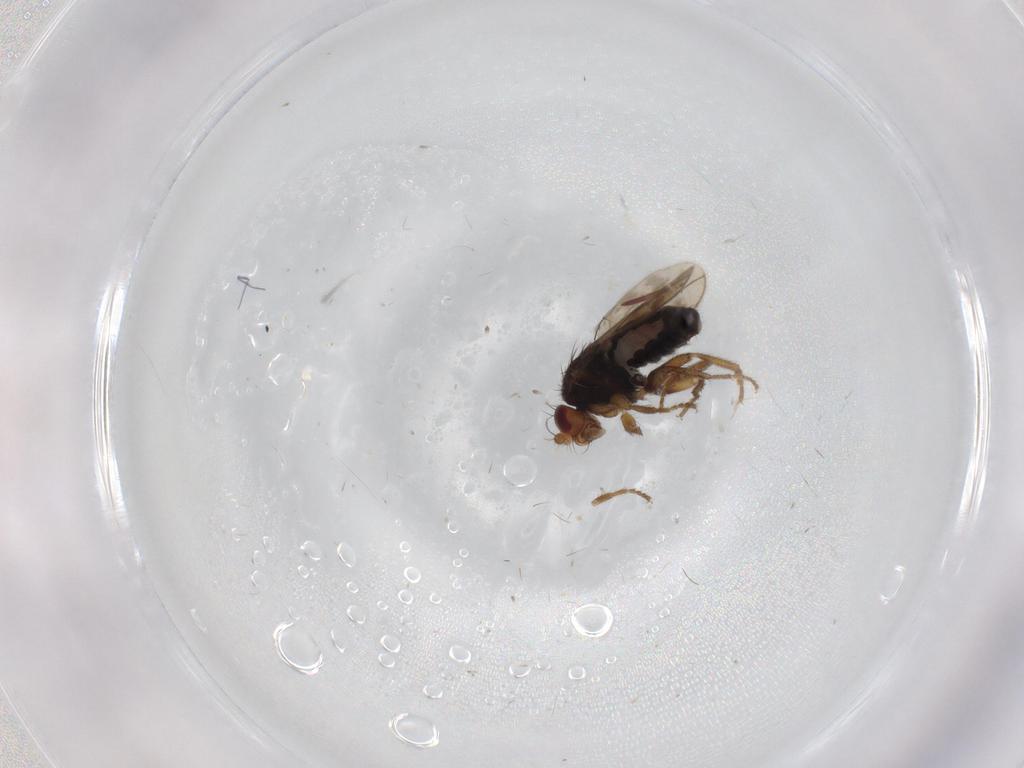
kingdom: Animalia
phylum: Arthropoda
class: Insecta
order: Diptera
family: Sphaeroceridae
